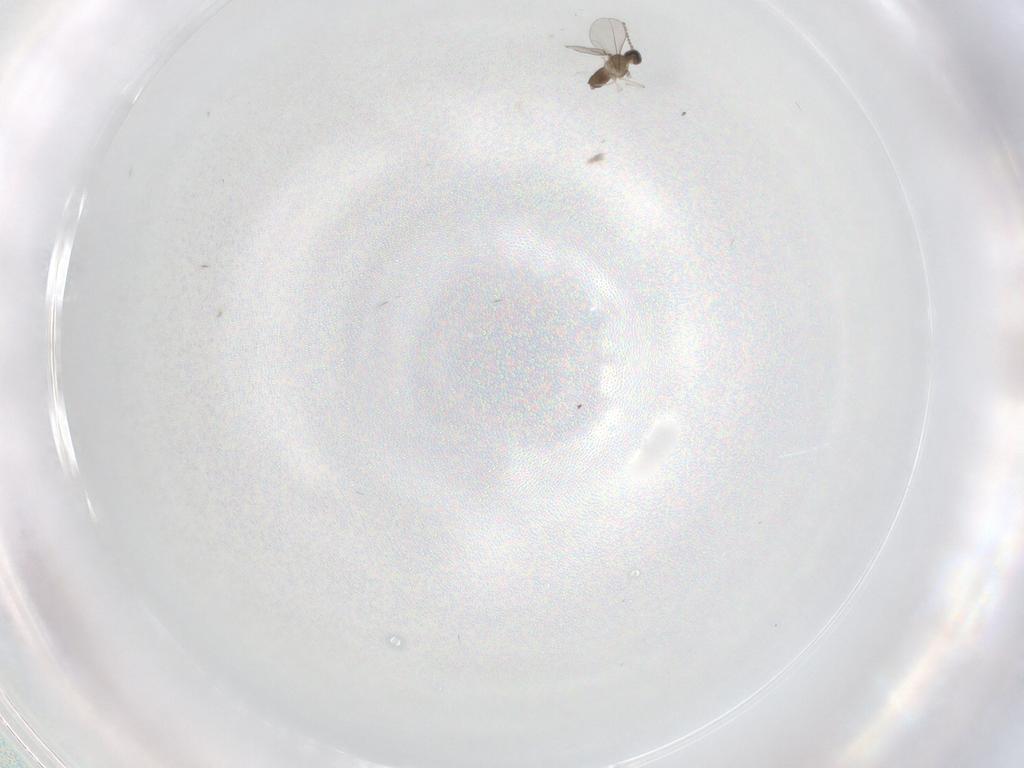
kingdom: Animalia
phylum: Arthropoda
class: Insecta
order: Diptera
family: Cecidomyiidae
